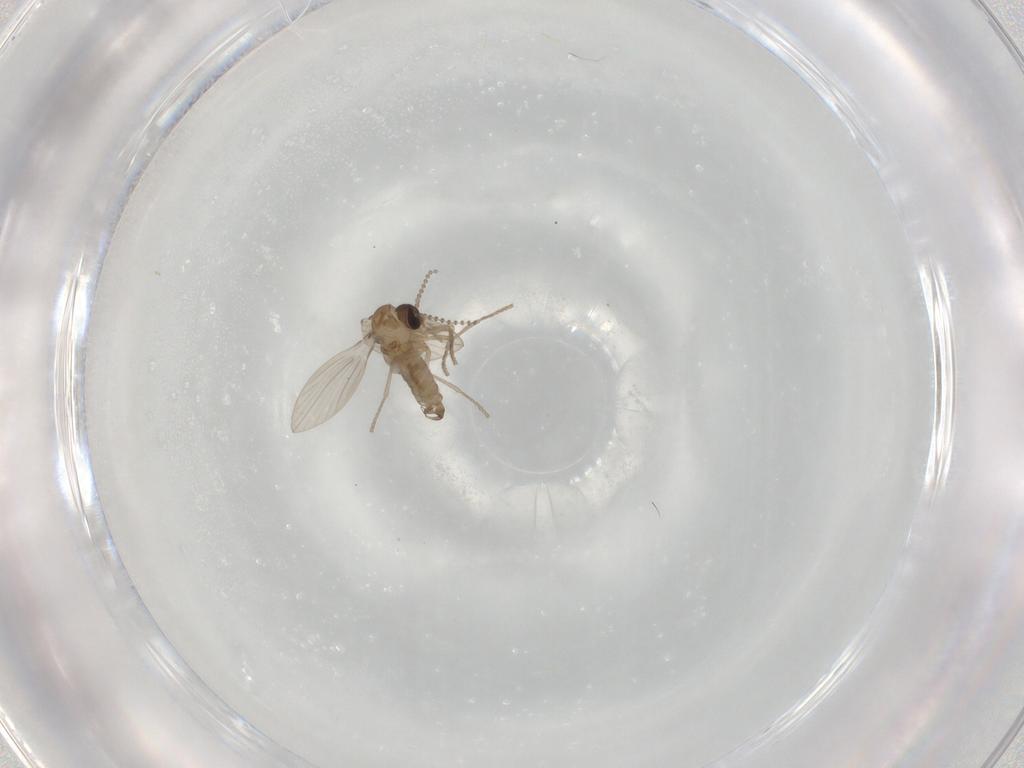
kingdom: Animalia
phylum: Arthropoda
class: Insecta
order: Diptera
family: Psychodidae
